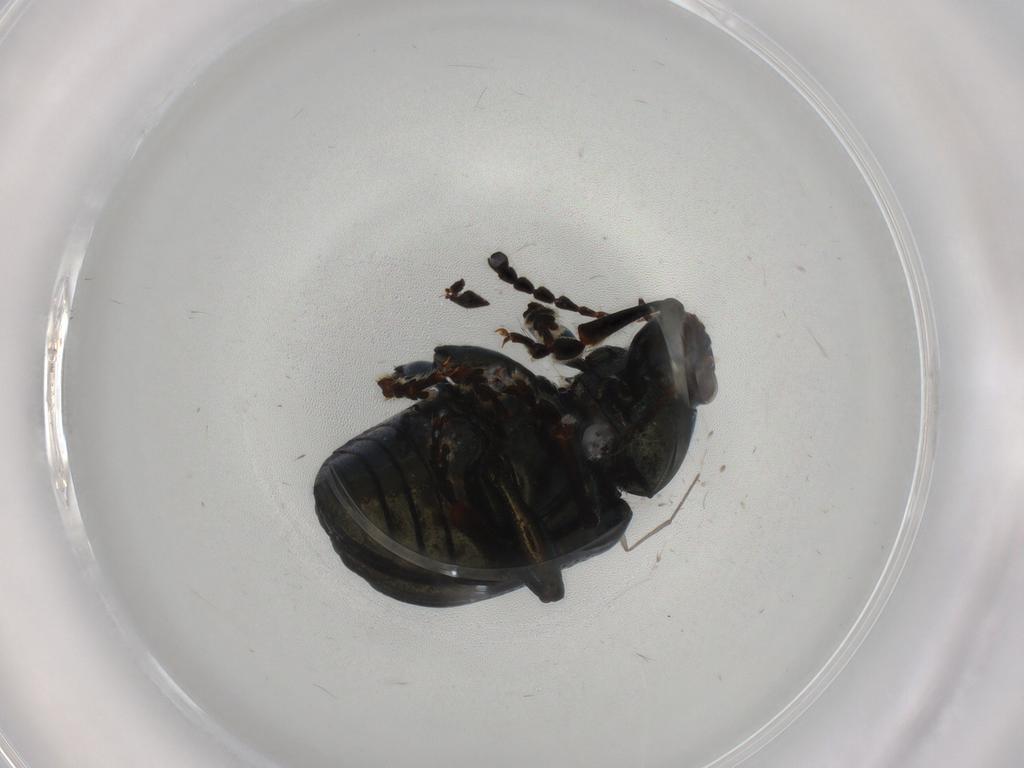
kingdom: Animalia
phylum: Arthropoda
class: Insecta
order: Coleoptera
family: Chrysomelidae
